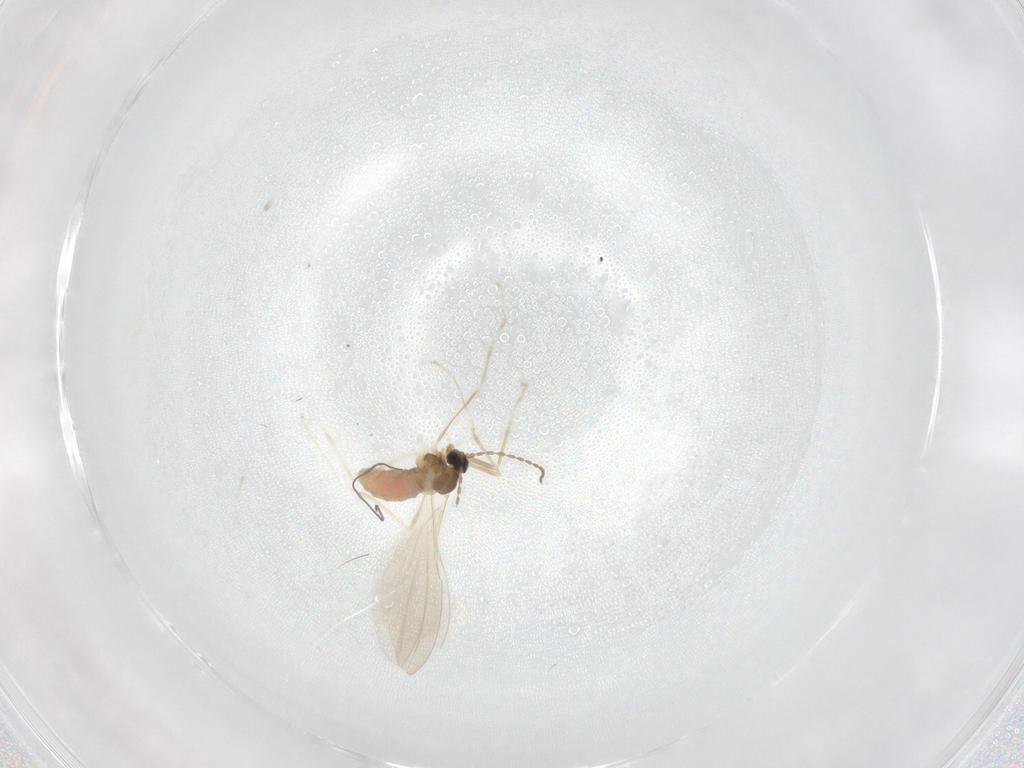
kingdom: Animalia
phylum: Arthropoda
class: Insecta
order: Diptera
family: Cecidomyiidae
